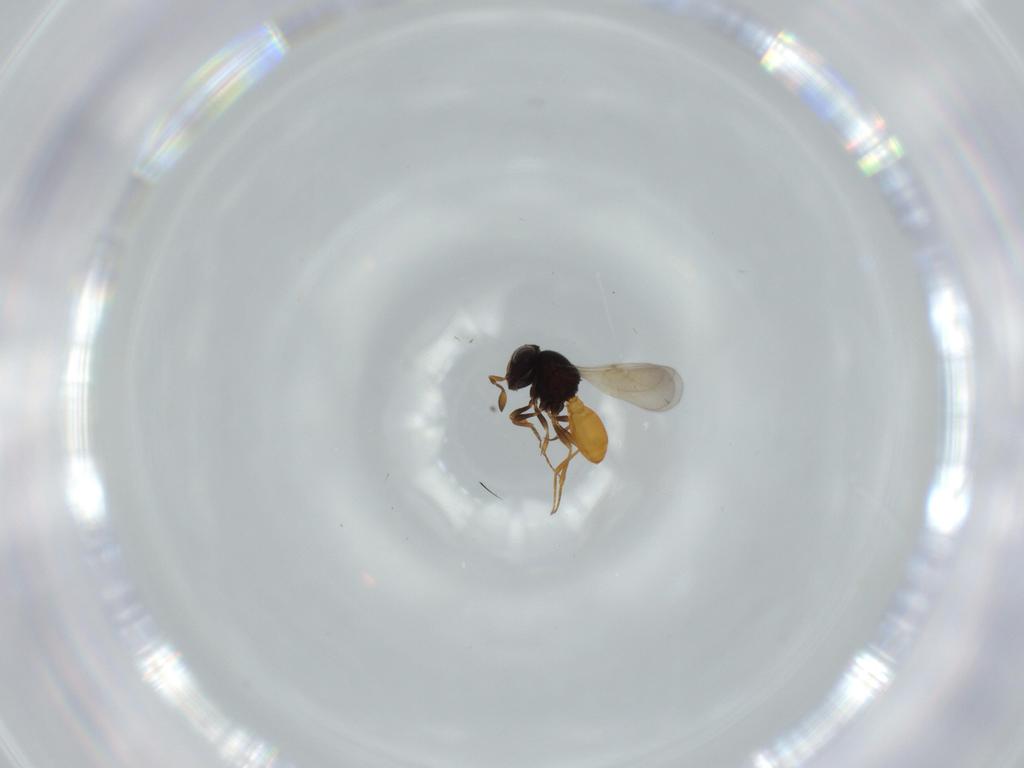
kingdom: Animalia
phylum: Arthropoda
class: Insecta
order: Hymenoptera
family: Scelionidae
